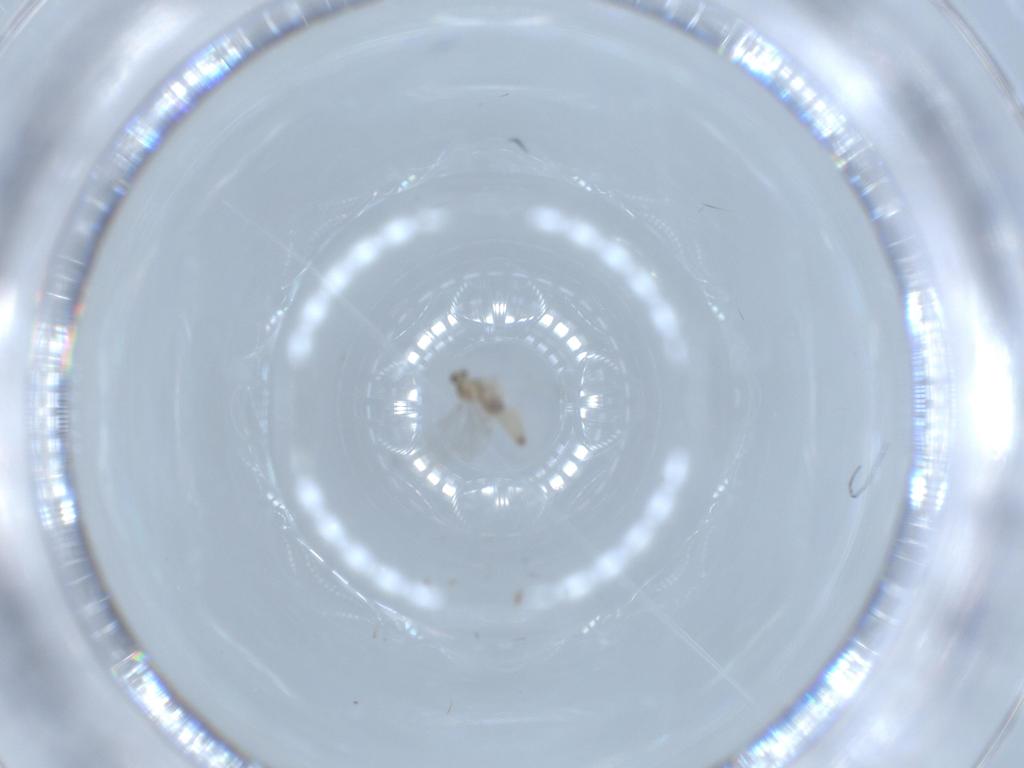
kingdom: Animalia
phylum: Arthropoda
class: Insecta
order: Diptera
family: Cecidomyiidae
